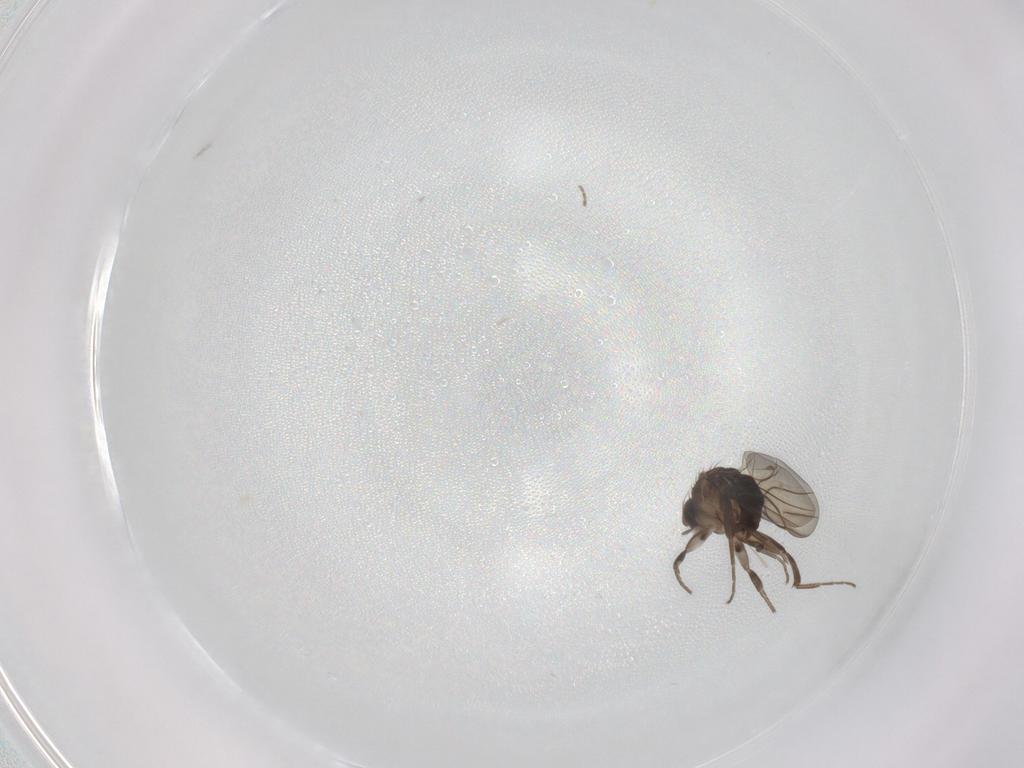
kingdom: Animalia
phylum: Arthropoda
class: Insecta
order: Diptera
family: Phoridae
